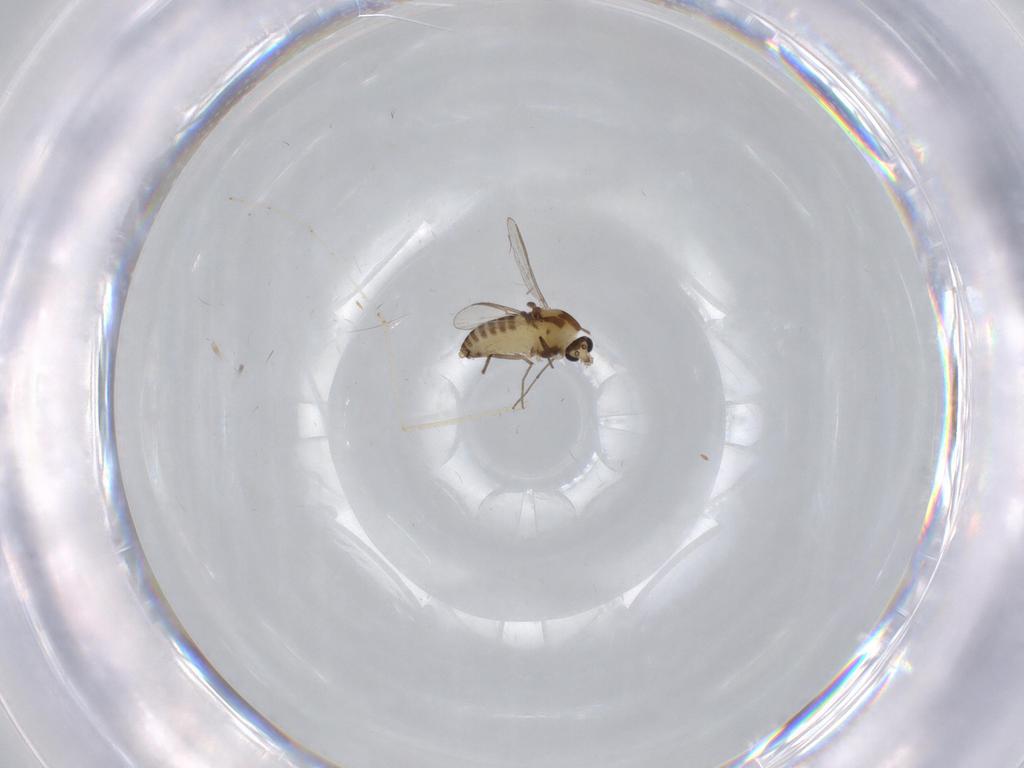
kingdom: Animalia
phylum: Arthropoda
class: Insecta
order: Diptera
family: Chironomidae
